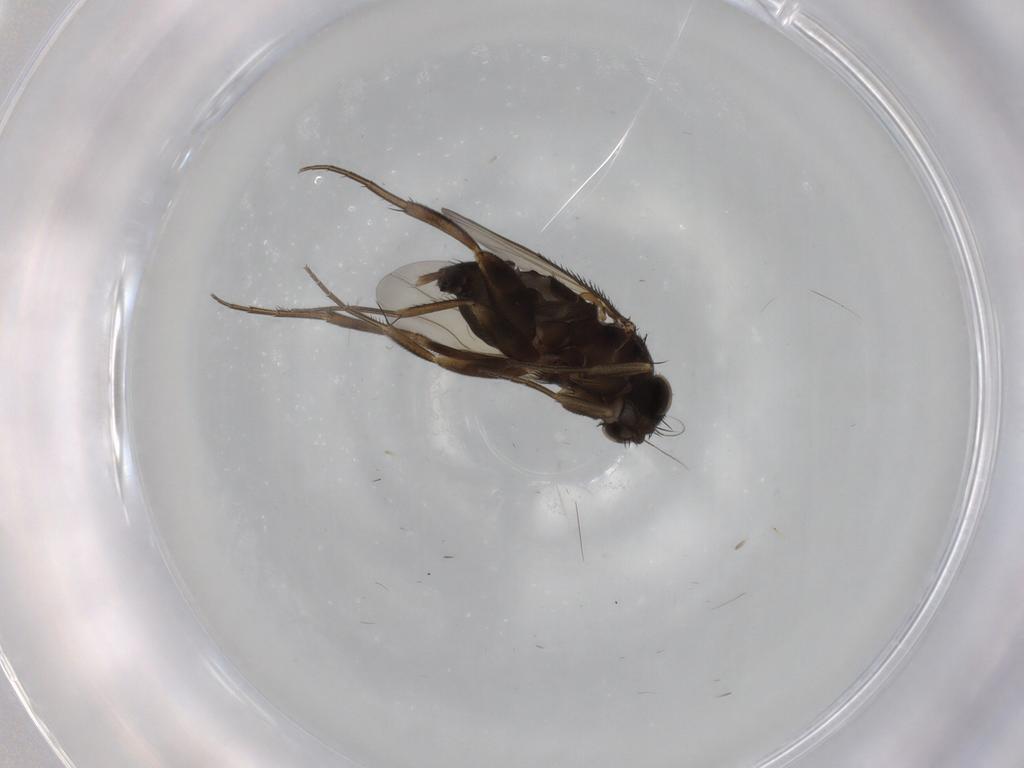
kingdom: Animalia
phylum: Arthropoda
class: Insecta
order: Diptera
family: Phoridae
